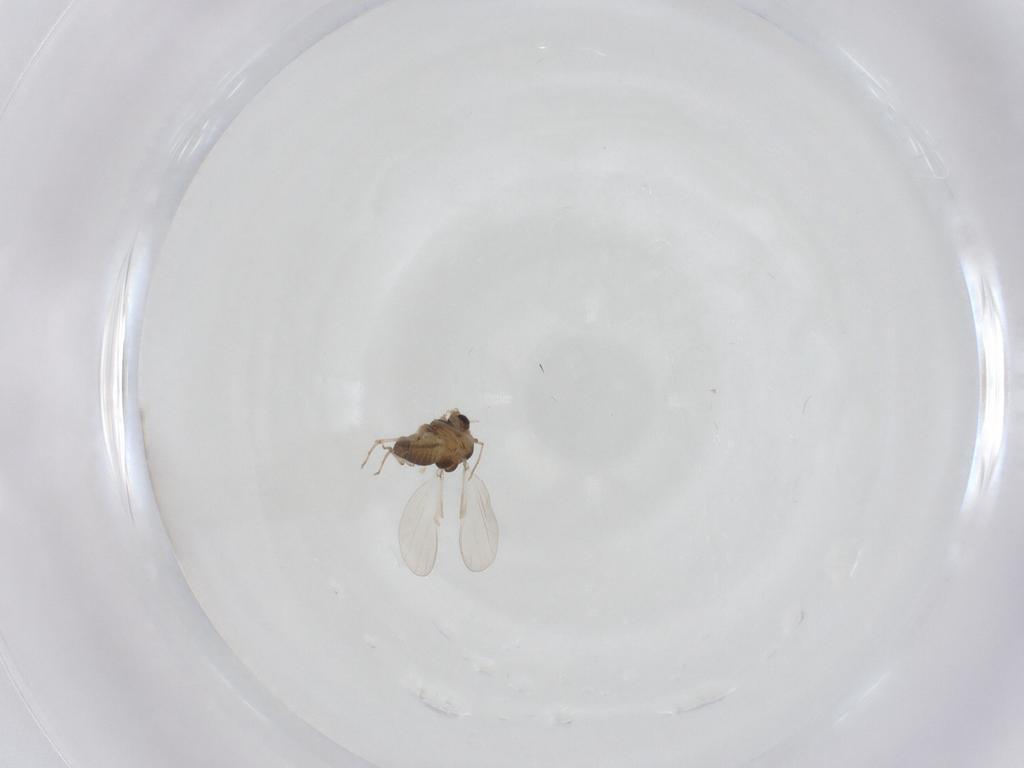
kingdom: Animalia
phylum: Arthropoda
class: Insecta
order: Diptera
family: Chironomidae
